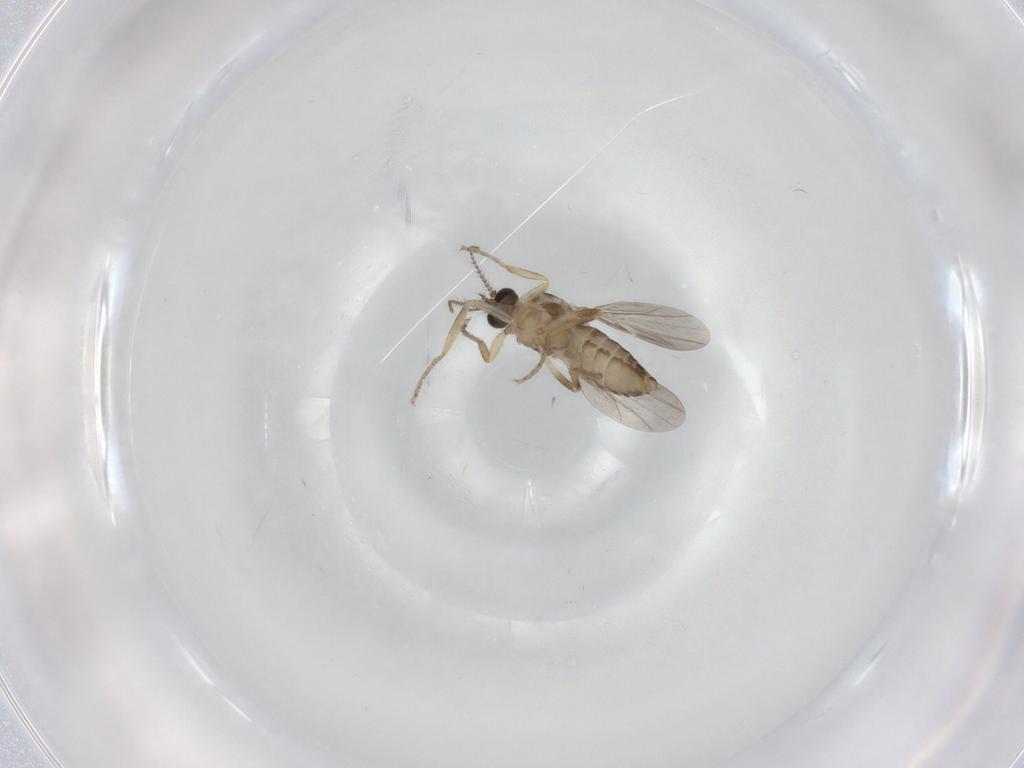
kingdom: Animalia
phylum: Arthropoda
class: Insecta
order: Diptera
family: Ceratopogonidae
